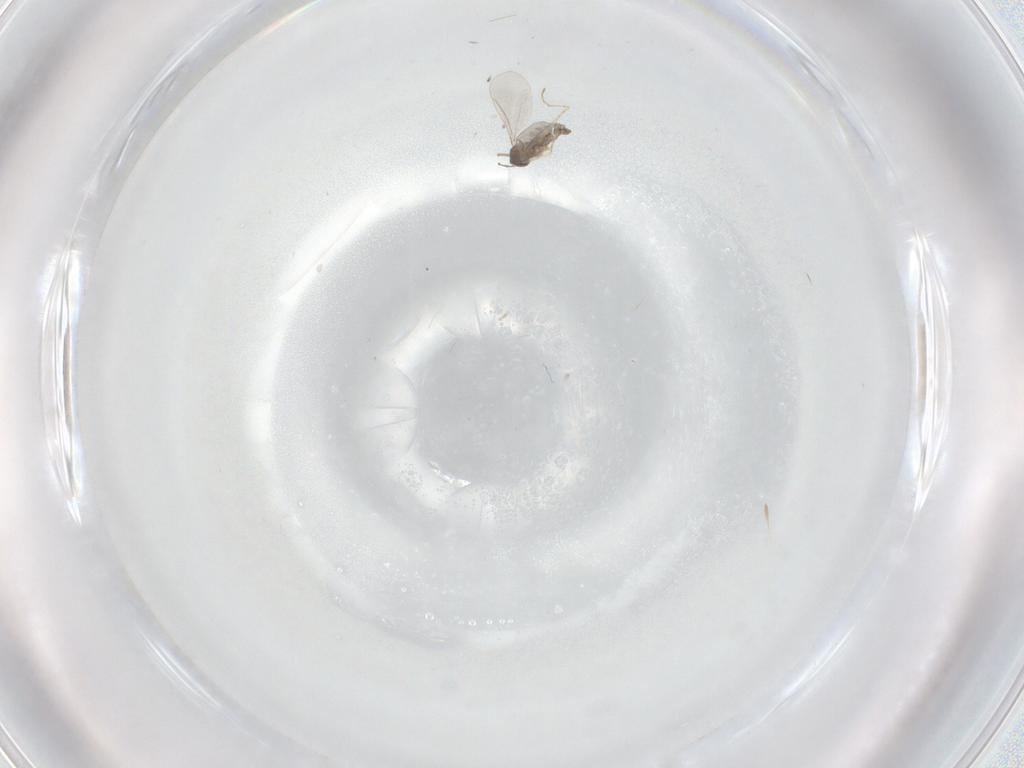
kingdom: Animalia
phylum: Arthropoda
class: Insecta
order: Diptera
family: Cecidomyiidae
